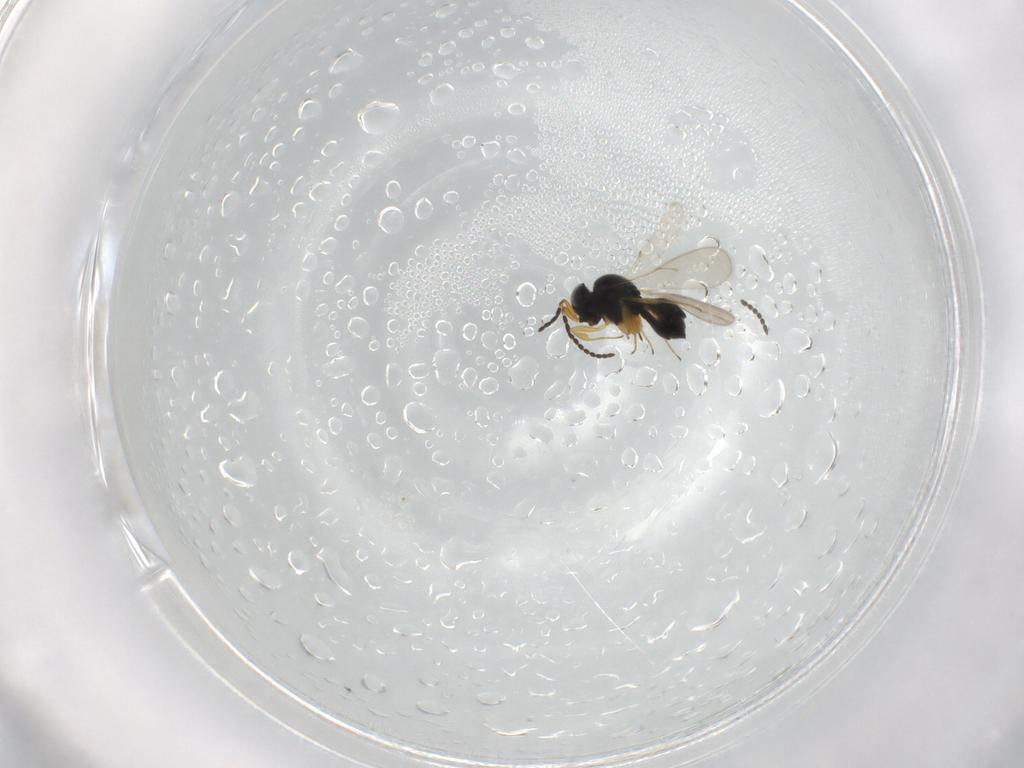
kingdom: Animalia
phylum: Arthropoda
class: Insecta
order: Hymenoptera
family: Scelionidae
